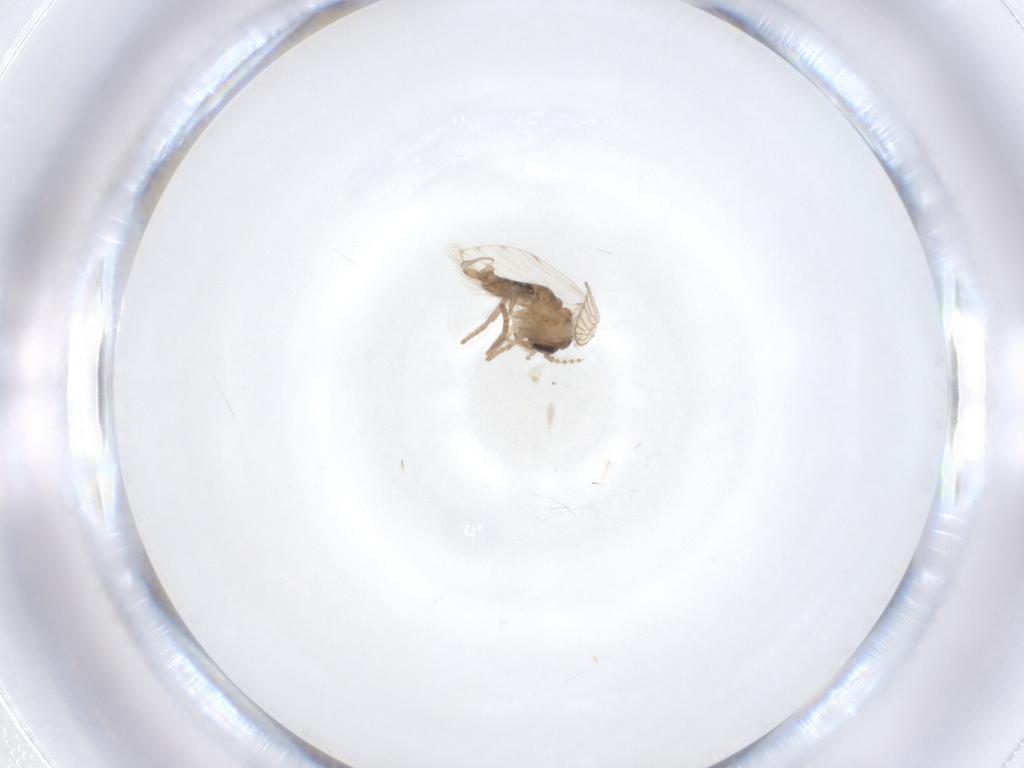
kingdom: Animalia
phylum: Arthropoda
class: Insecta
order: Diptera
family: Psychodidae
